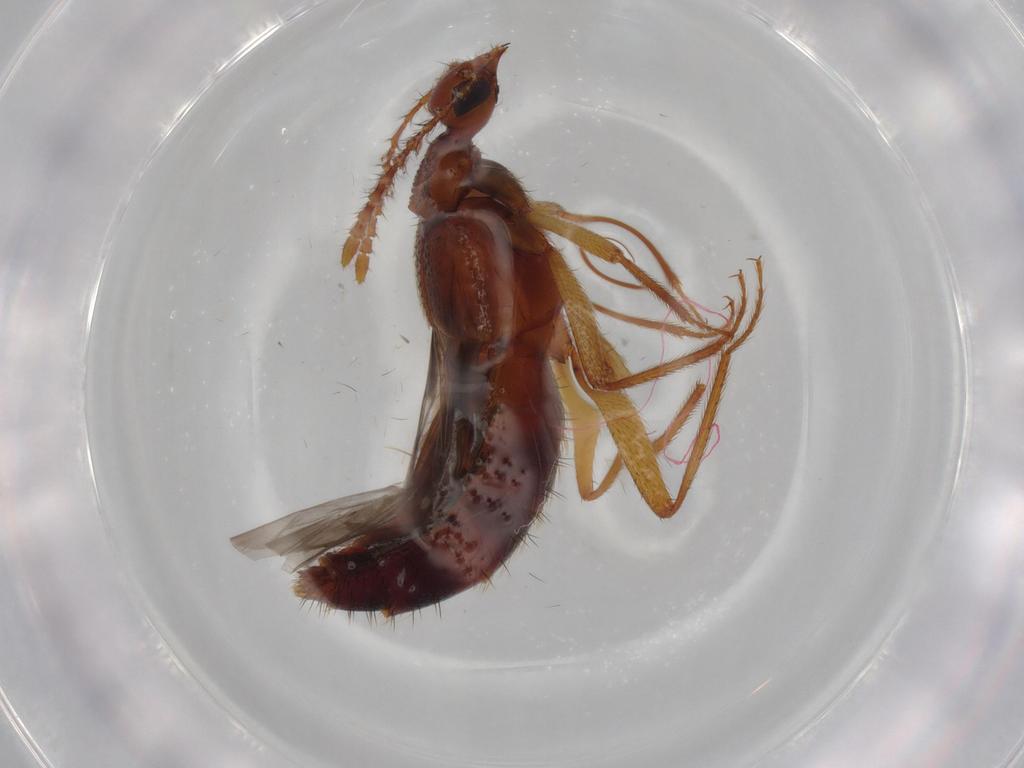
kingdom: Animalia
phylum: Arthropoda
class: Insecta
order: Coleoptera
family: Staphylinidae
